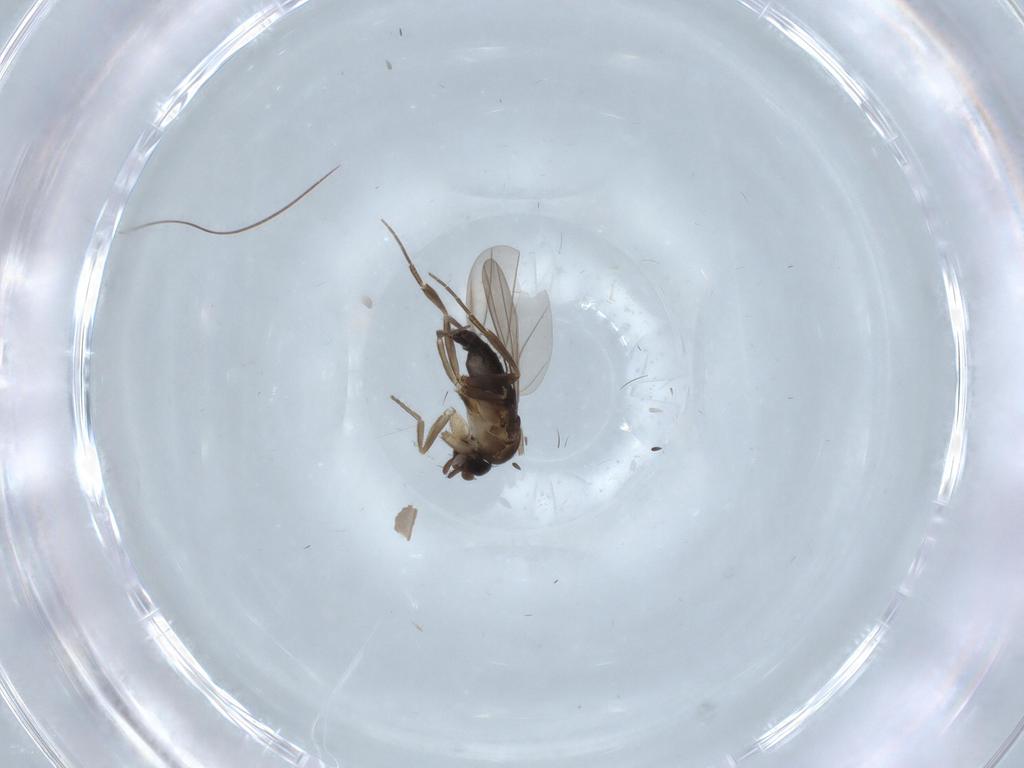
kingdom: Animalia
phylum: Arthropoda
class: Insecta
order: Diptera
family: Phoridae
